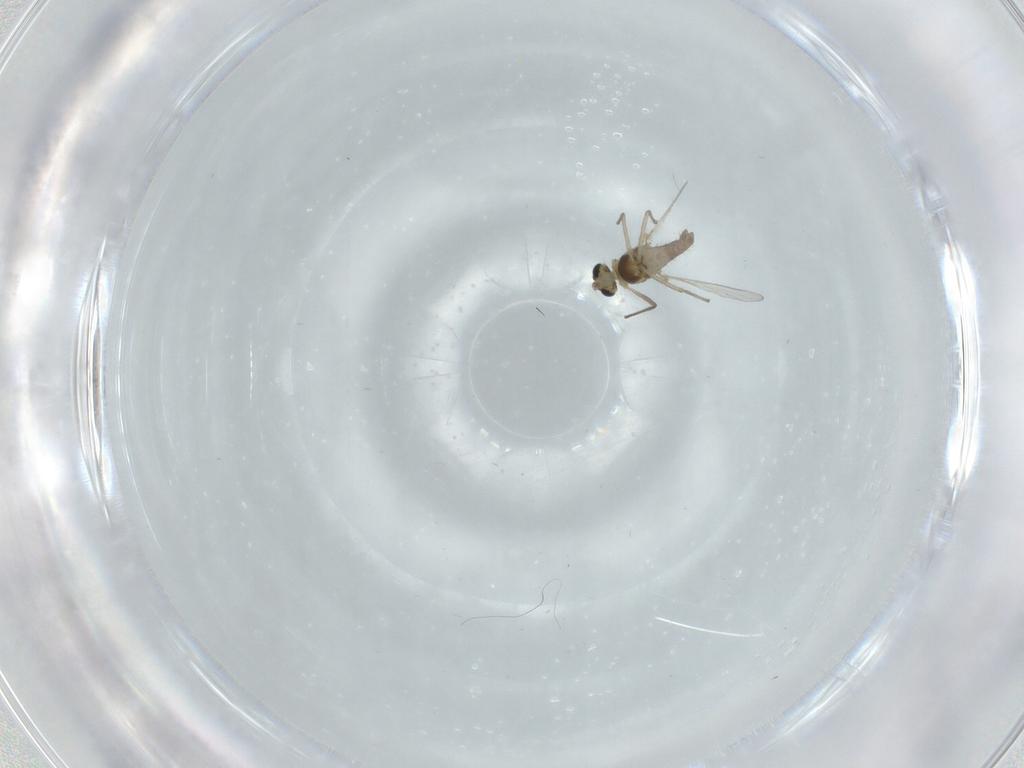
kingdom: Animalia
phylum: Arthropoda
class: Insecta
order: Diptera
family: Chironomidae
